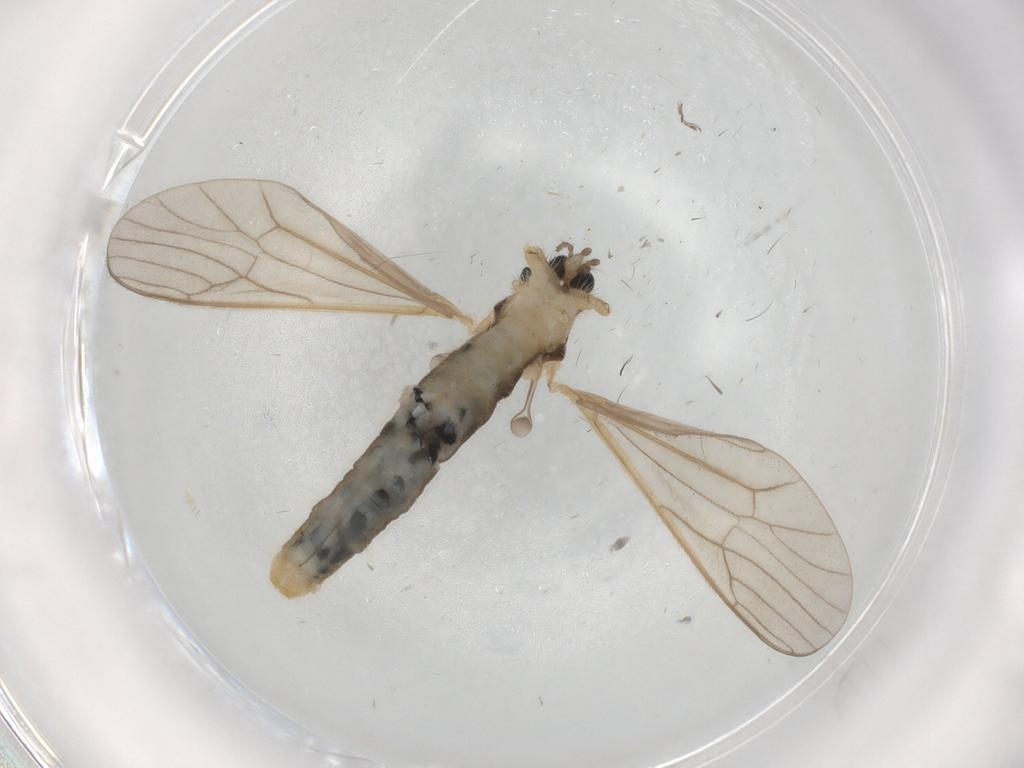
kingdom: Animalia
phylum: Arthropoda
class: Insecta
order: Diptera
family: Limoniidae
